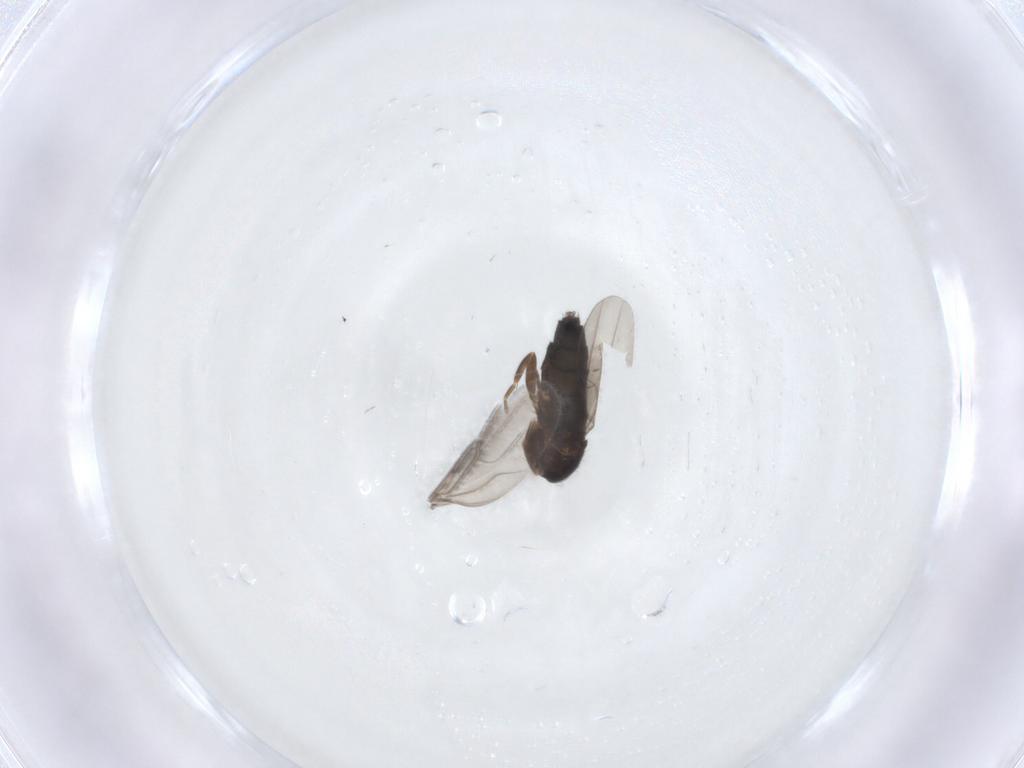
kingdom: Animalia
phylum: Arthropoda
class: Insecta
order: Diptera
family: Phoridae
